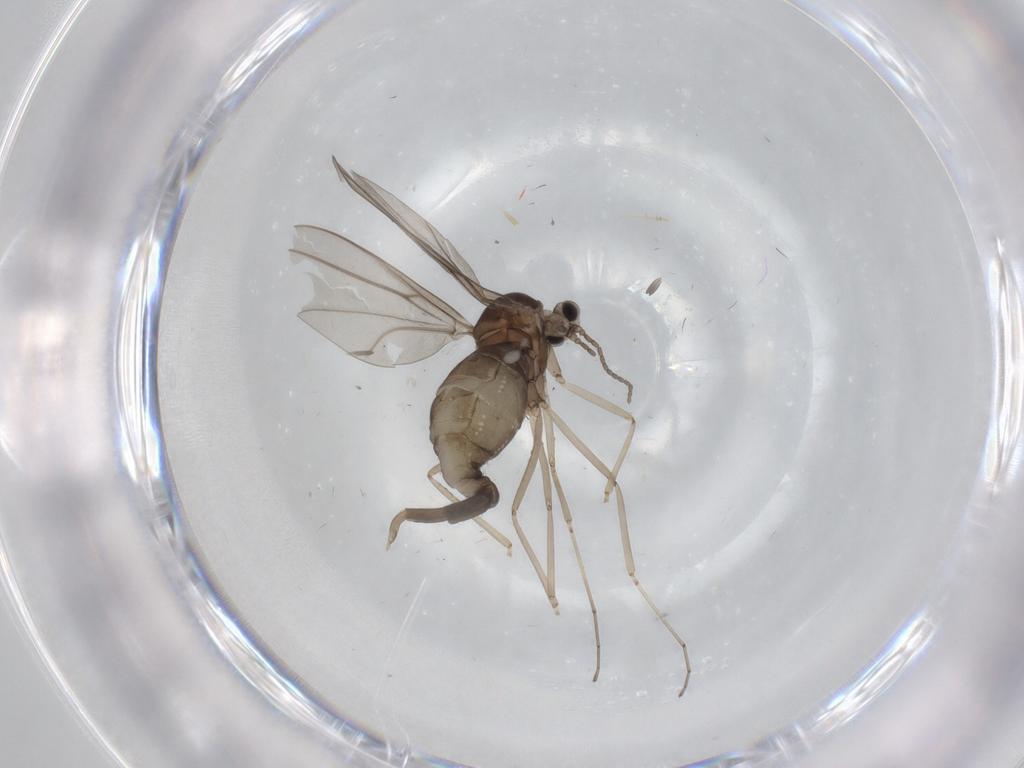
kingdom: Animalia
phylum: Arthropoda
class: Insecta
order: Diptera
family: Cecidomyiidae
